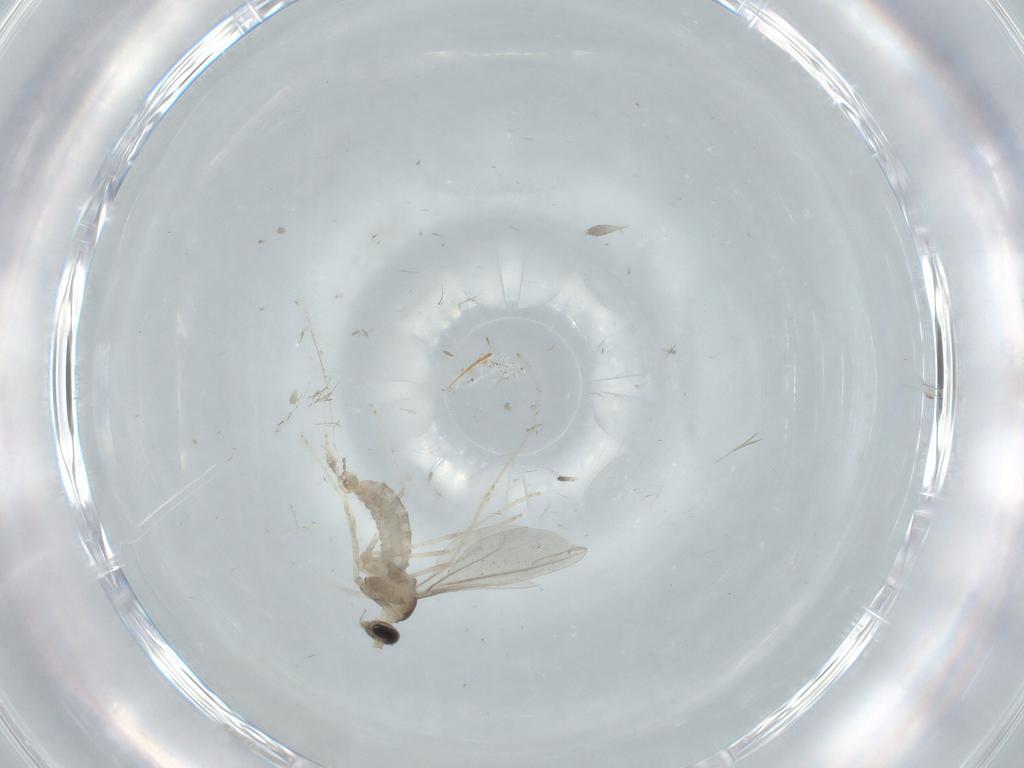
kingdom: Animalia
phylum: Arthropoda
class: Insecta
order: Diptera
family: Cecidomyiidae
